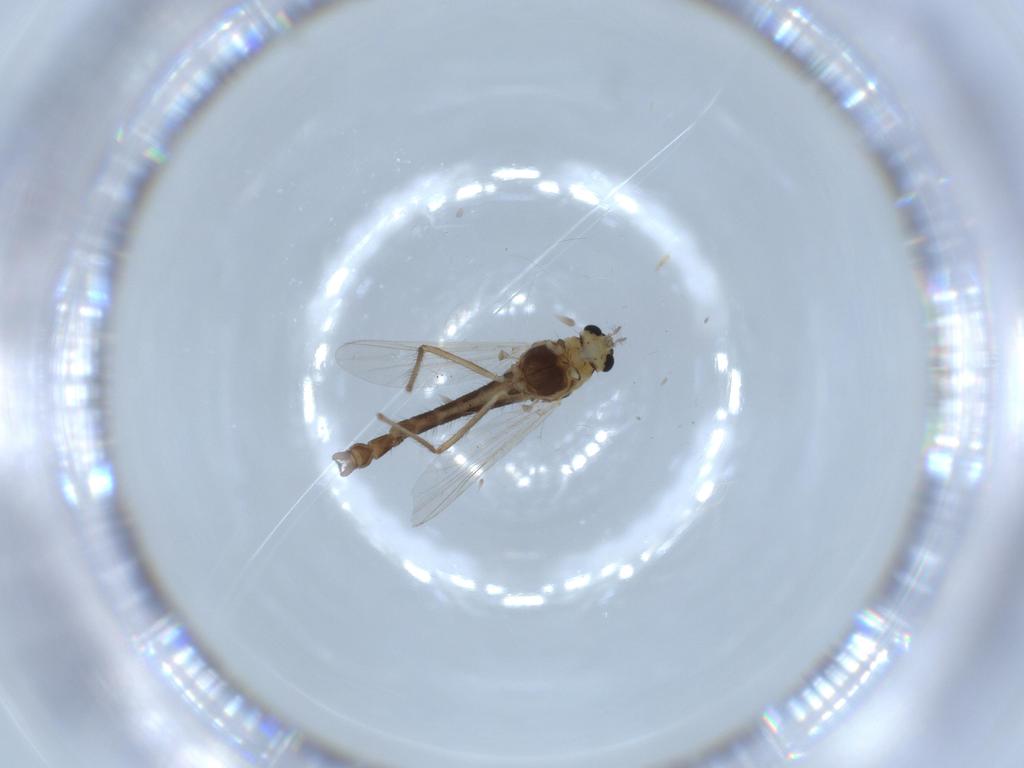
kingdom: Animalia
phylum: Arthropoda
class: Insecta
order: Diptera
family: Chironomidae
